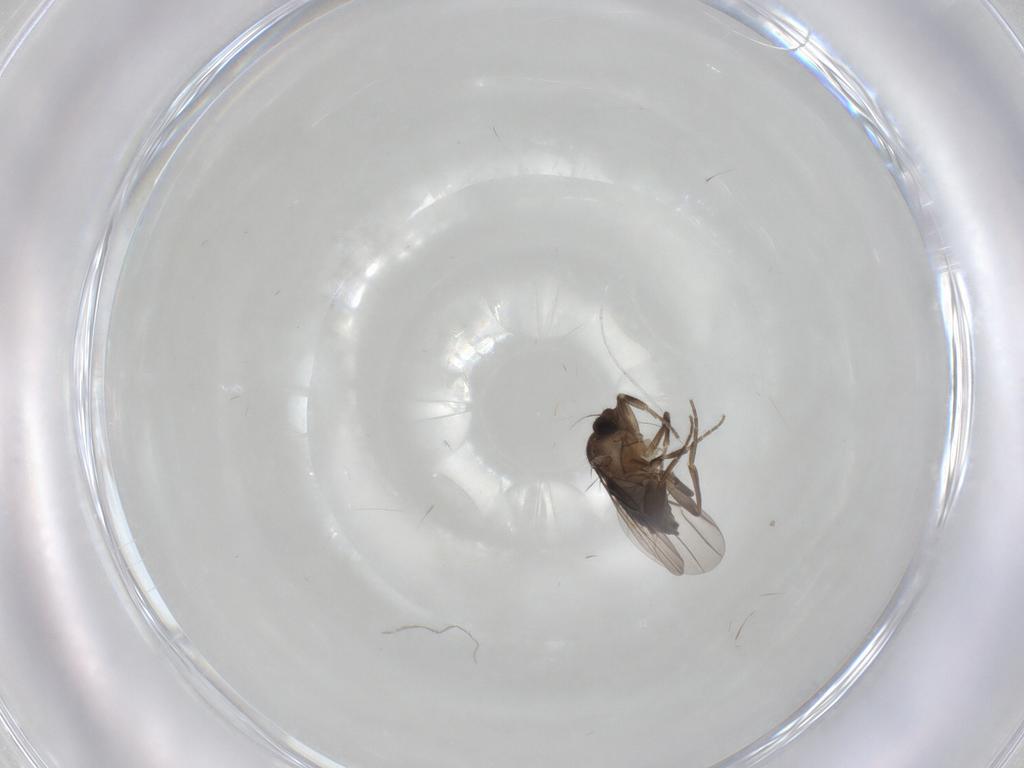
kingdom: Animalia
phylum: Arthropoda
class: Insecta
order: Diptera
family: Phoridae
